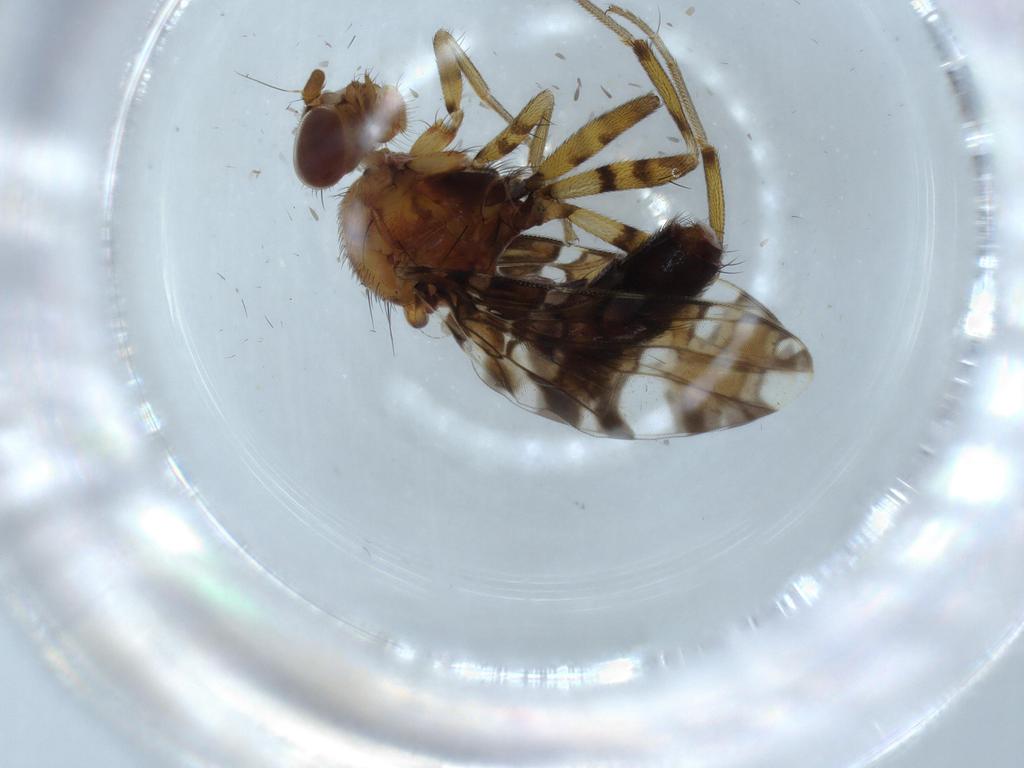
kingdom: Animalia
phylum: Arthropoda
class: Insecta
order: Diptera
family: Ulidiidae
